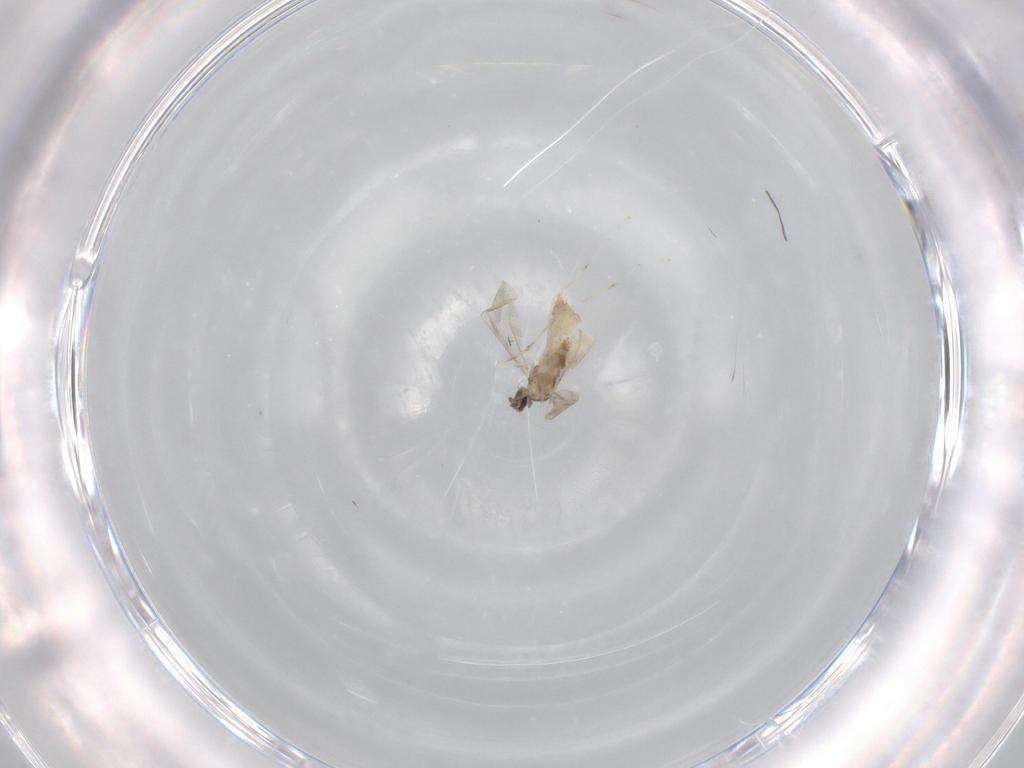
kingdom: Animalia
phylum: Arthropoda
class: Insecta
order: Diptera
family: Cecidomyiidae
